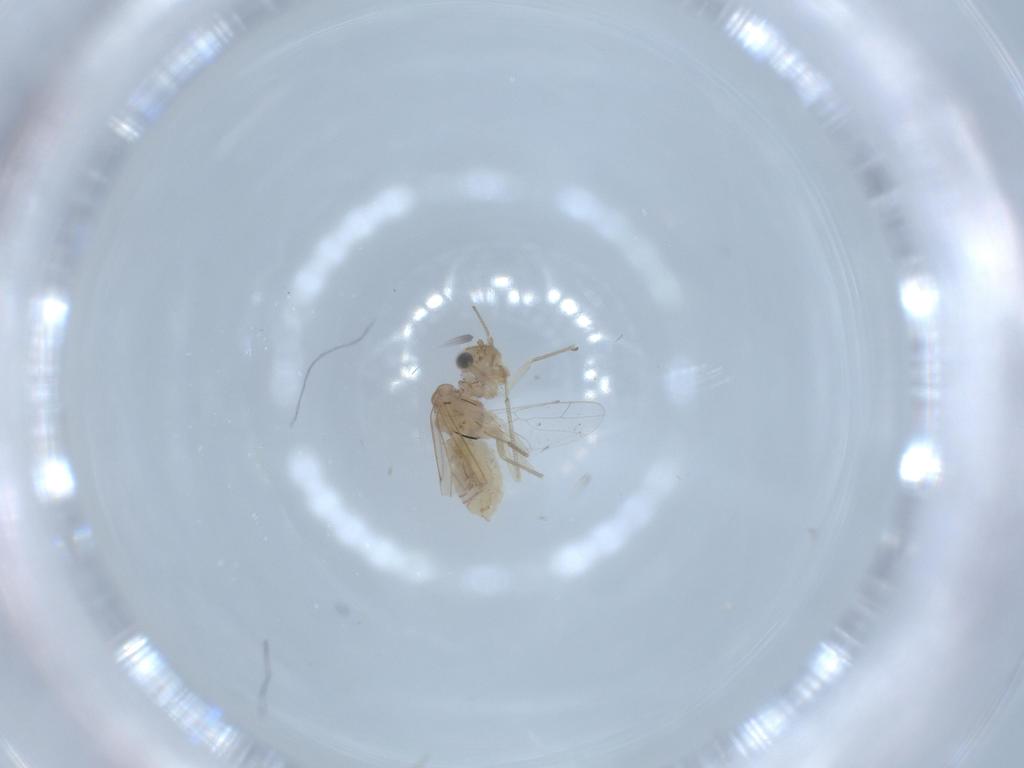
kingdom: Animalia
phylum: Arthropoda
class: Insecta
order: Psocodea
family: Lachesillidae
